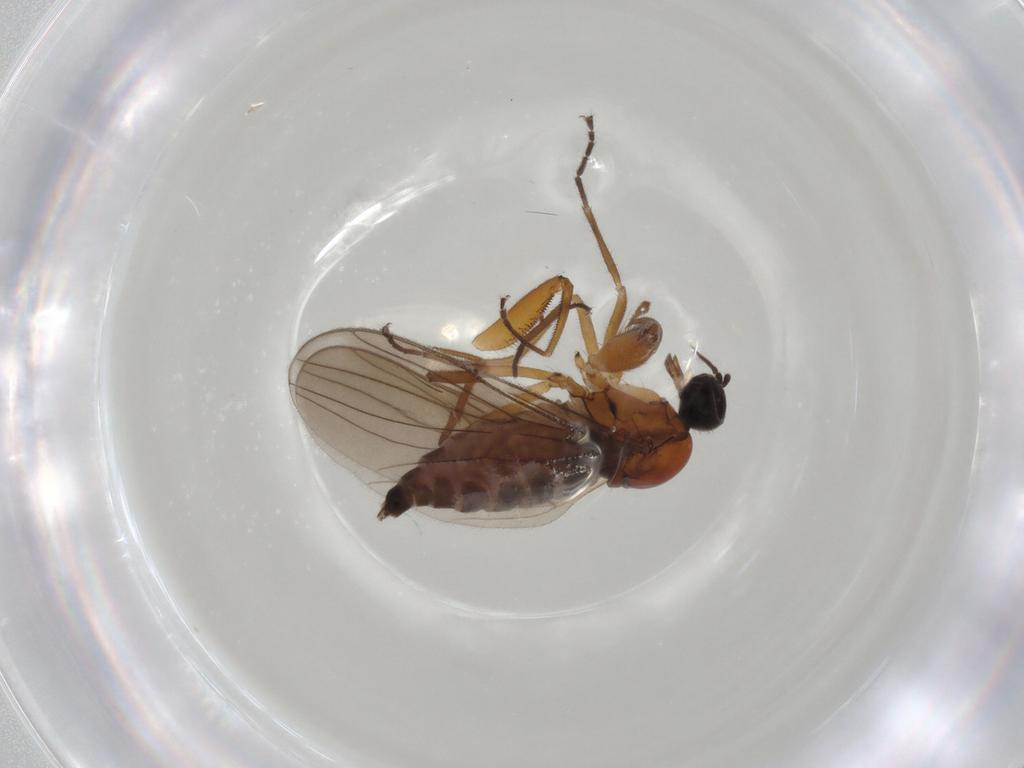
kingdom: Animalia
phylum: Arthropoda
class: Insecta
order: Diptera
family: Hybotidae
